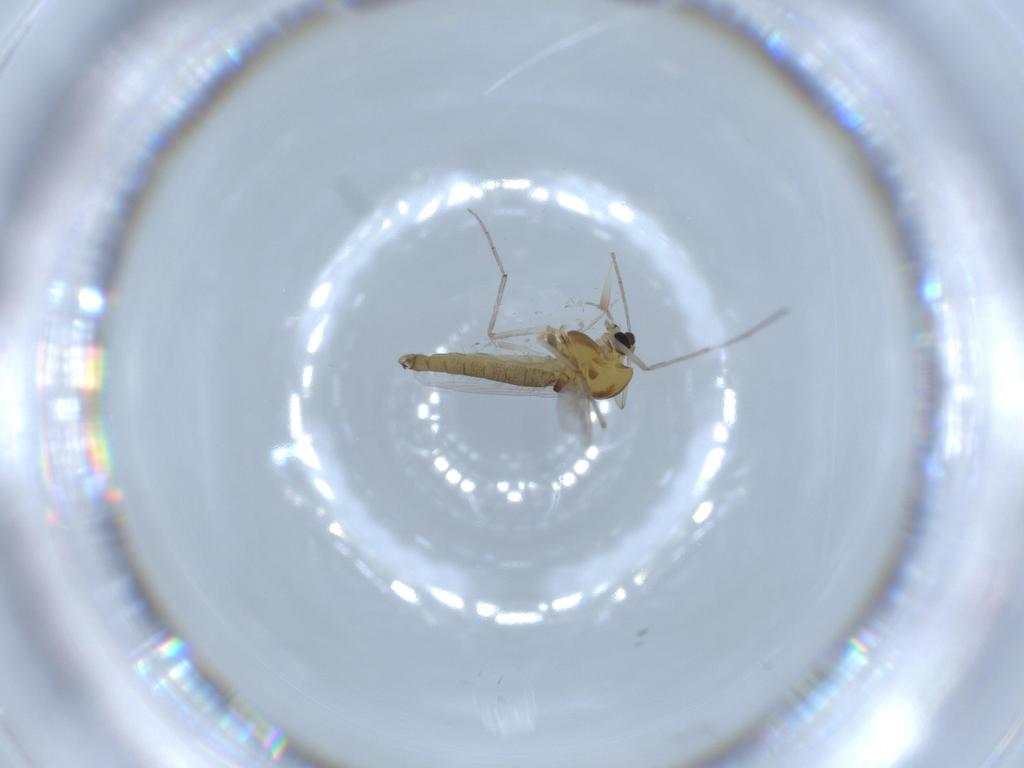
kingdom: Animalia
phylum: Arthropoda
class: Insecta
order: Diptera
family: Chironomidae
